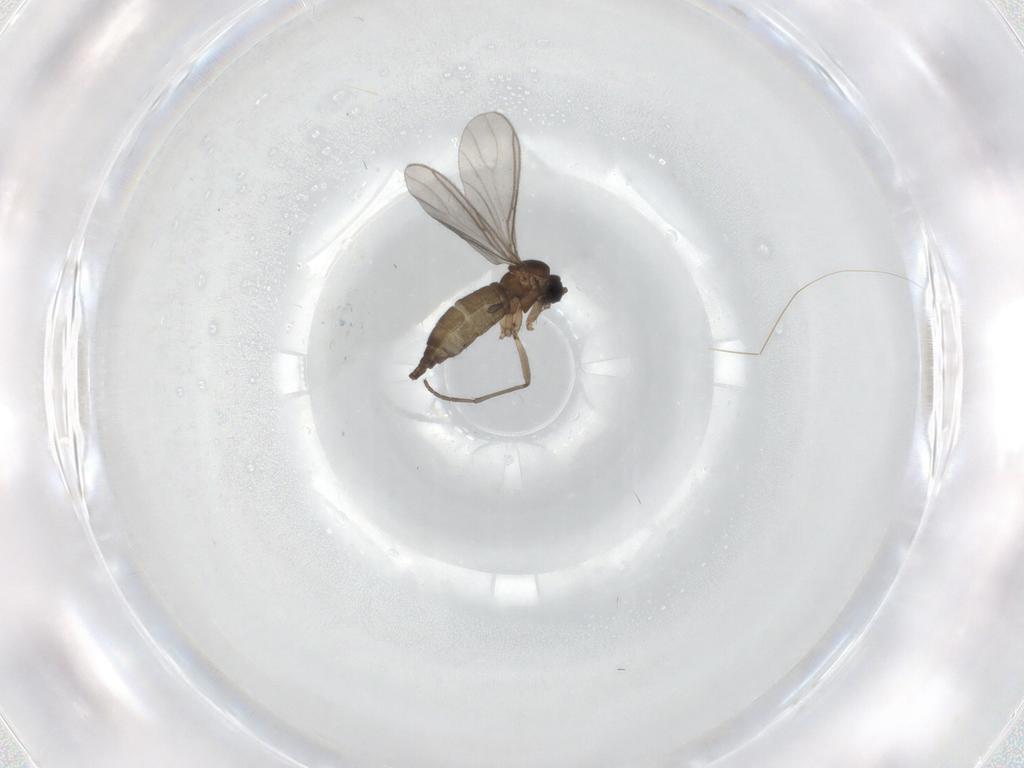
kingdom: Animalia
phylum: Arthropoda
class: Insecta
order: Diptera
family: Sciaridae
